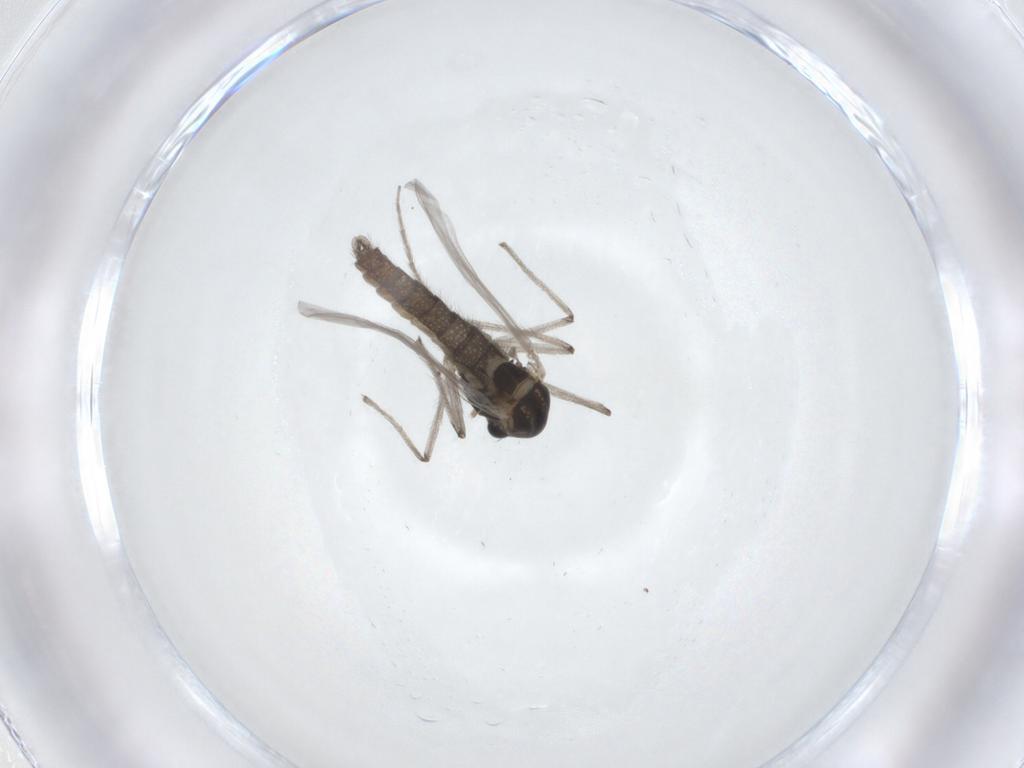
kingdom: Animalia
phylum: Arthropoda
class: Insecta
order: Diptera
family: Chironomidae
